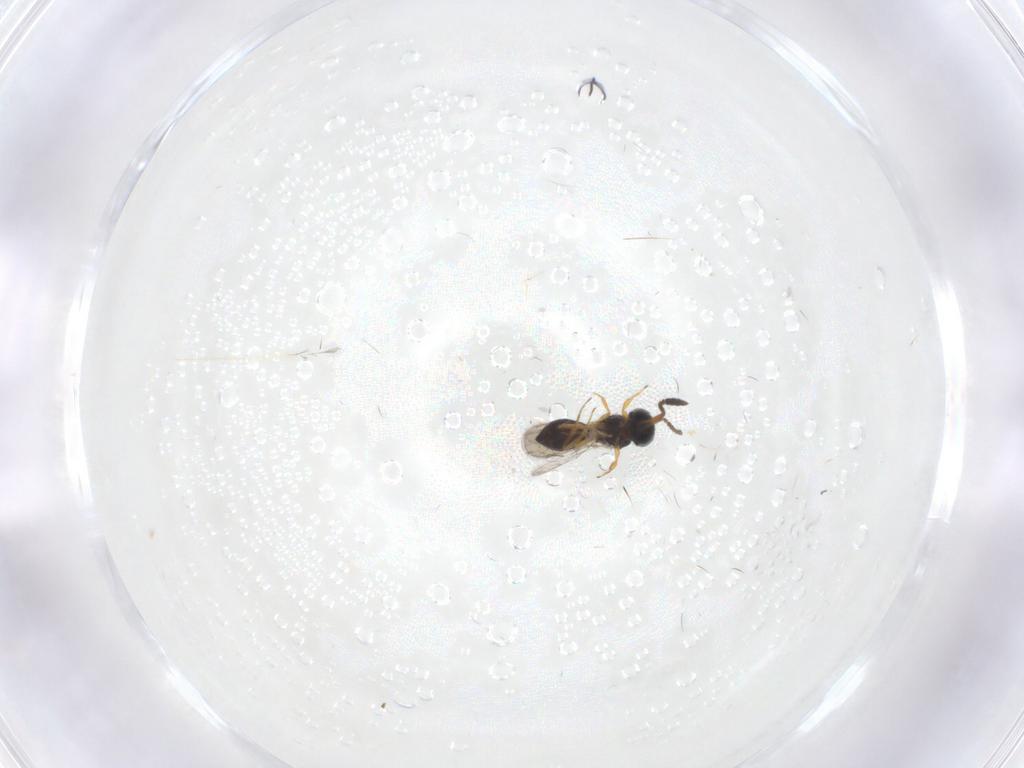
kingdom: Animalia
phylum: Arthropoda
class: Insecta
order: Hymenoptera
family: Scelionidae
